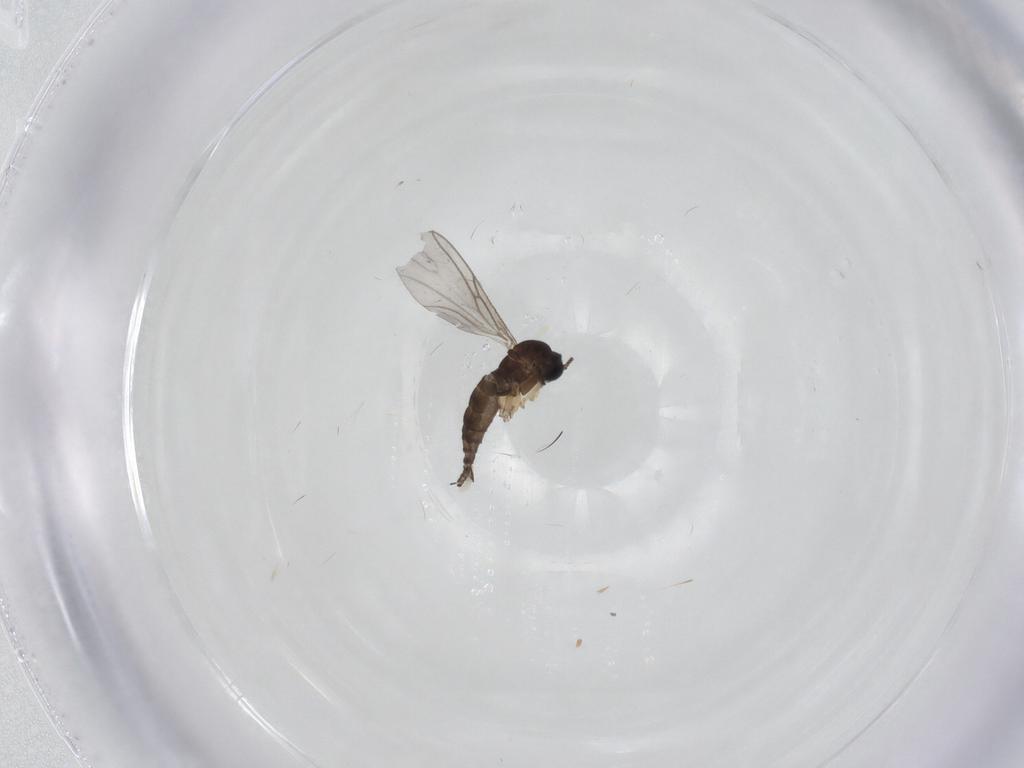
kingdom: Animalia
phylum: Arthropoda
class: Insecta
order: Diptera
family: Sciaridae
